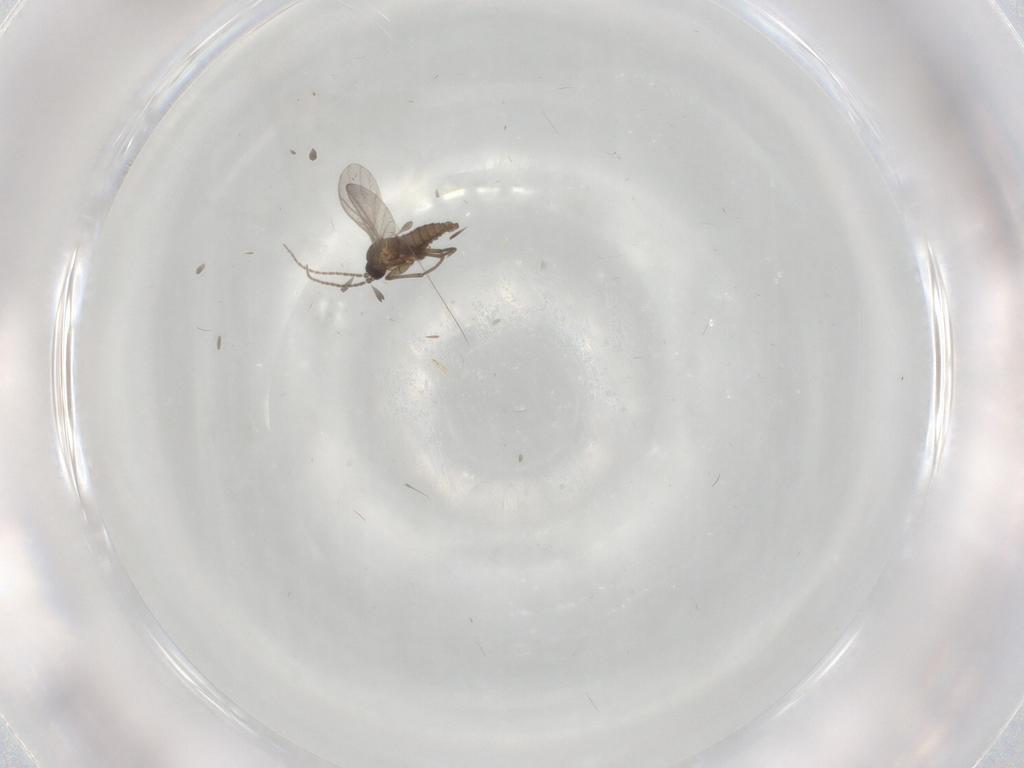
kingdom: Animalia
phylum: Arthropoda
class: Insecta
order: Diptera
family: Sciaridae
